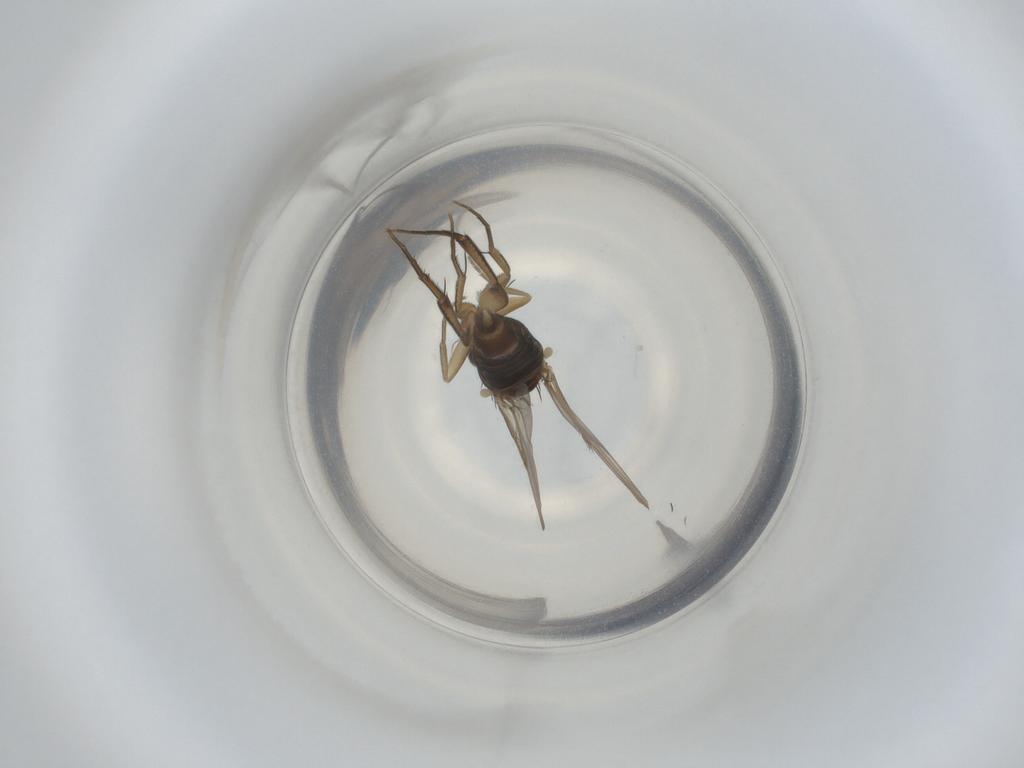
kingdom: Animalia
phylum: Arthropoda
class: Insecta
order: Diptera
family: Phoridae
